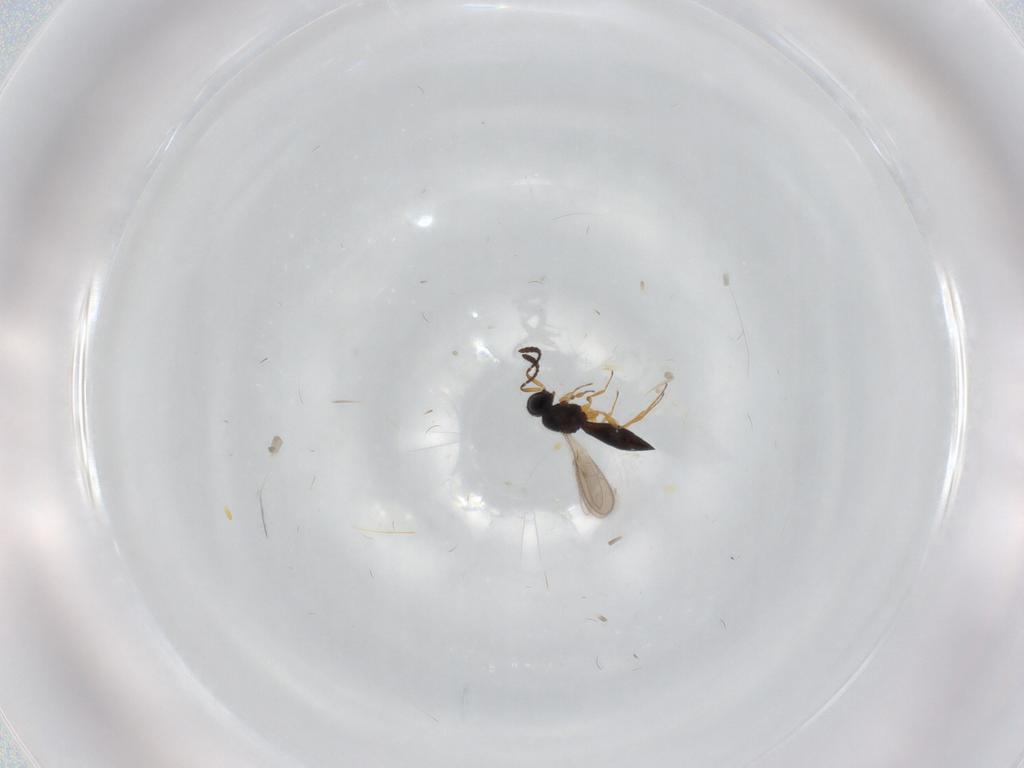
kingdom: Animalia
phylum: Arthropoda
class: Insecta
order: Hymenoptera
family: Scelionidae
